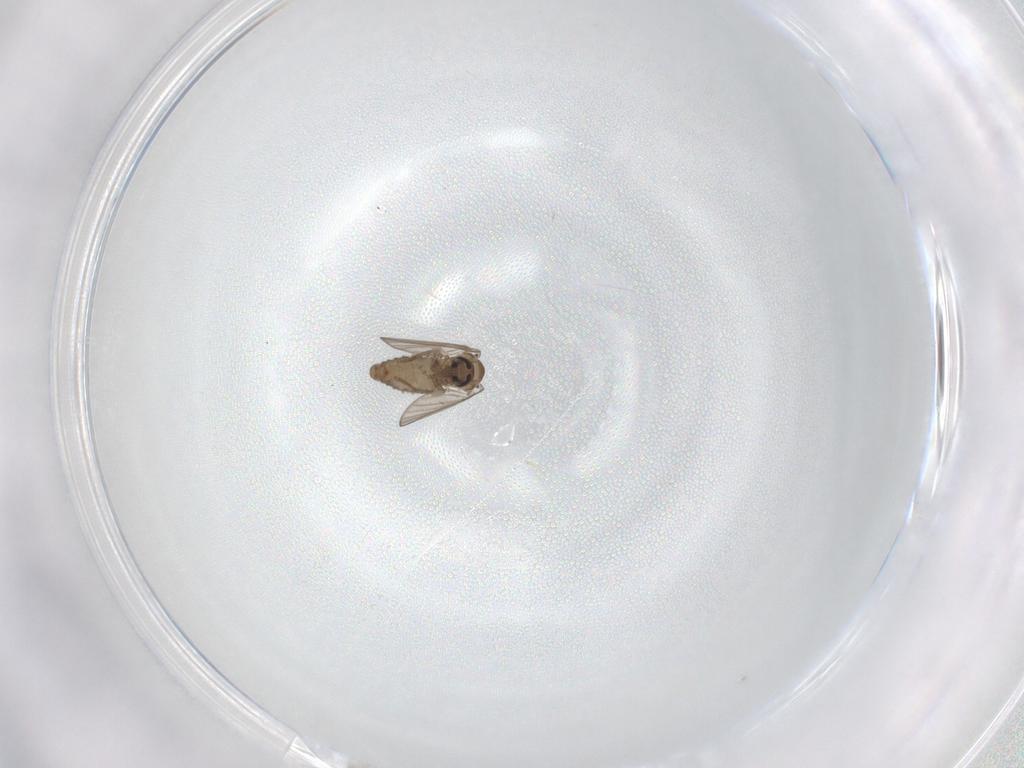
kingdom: Animalia
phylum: Arthropoda
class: Insecta
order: Diptera
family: Psychodidae
